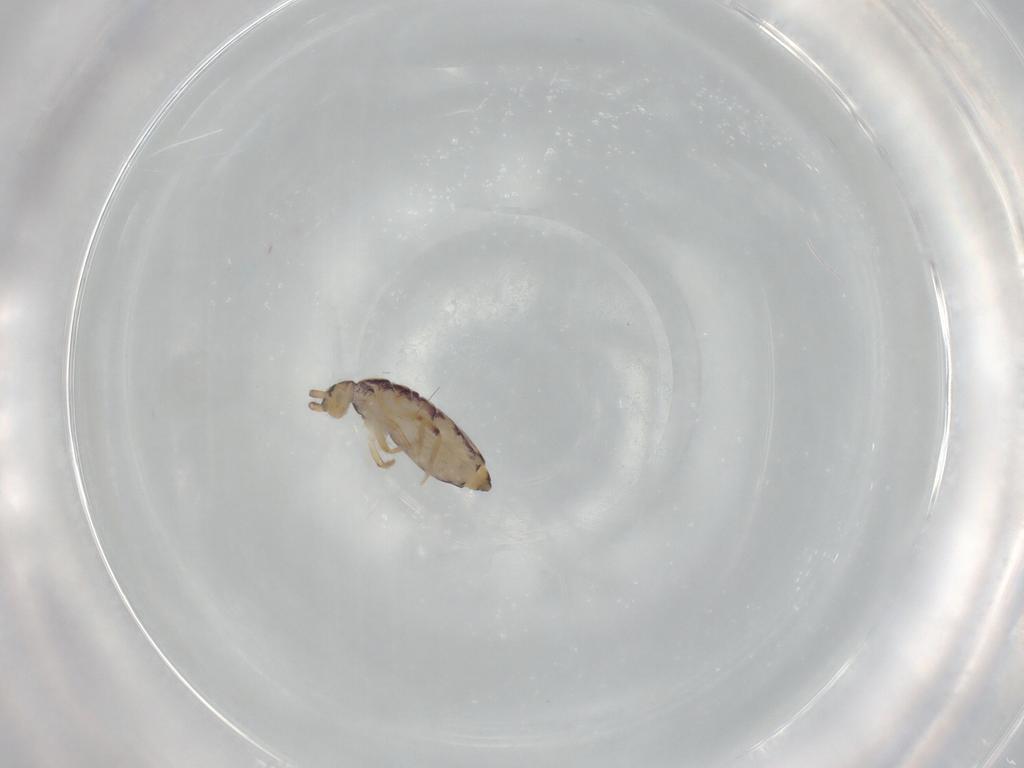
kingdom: Animalia
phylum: Arthropoda
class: Collembola
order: Entomobryomorpha
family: Entomobryidae
